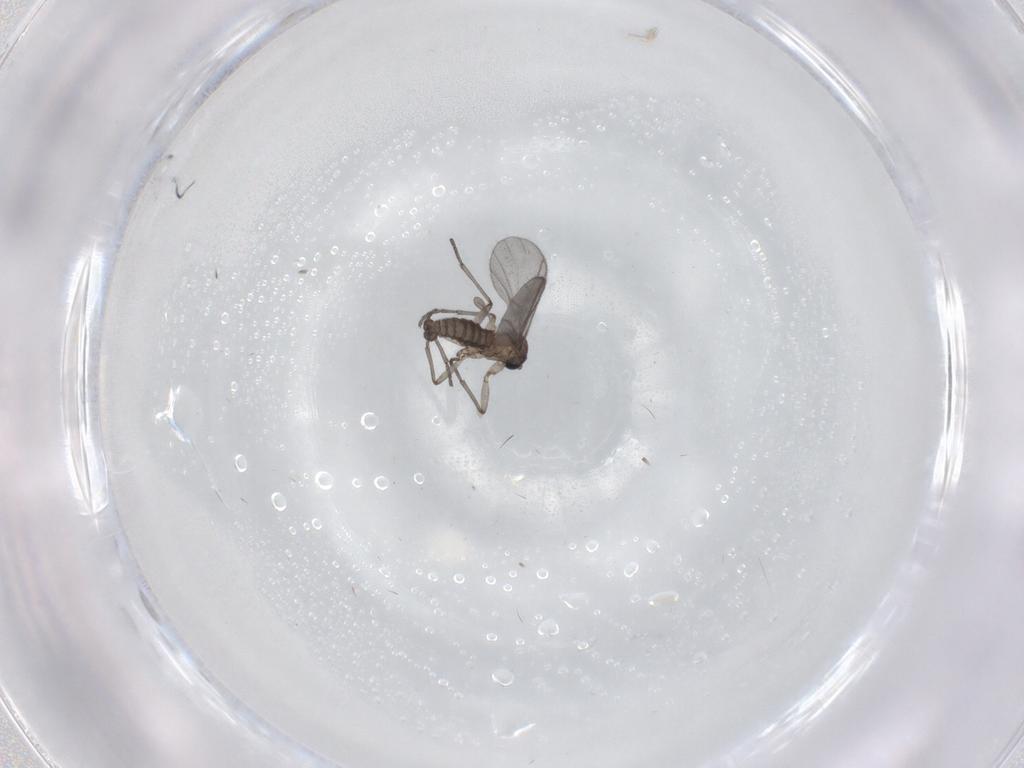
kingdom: Animalia
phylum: Arthropoda
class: Insecta
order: Diptera
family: Sciaridae
